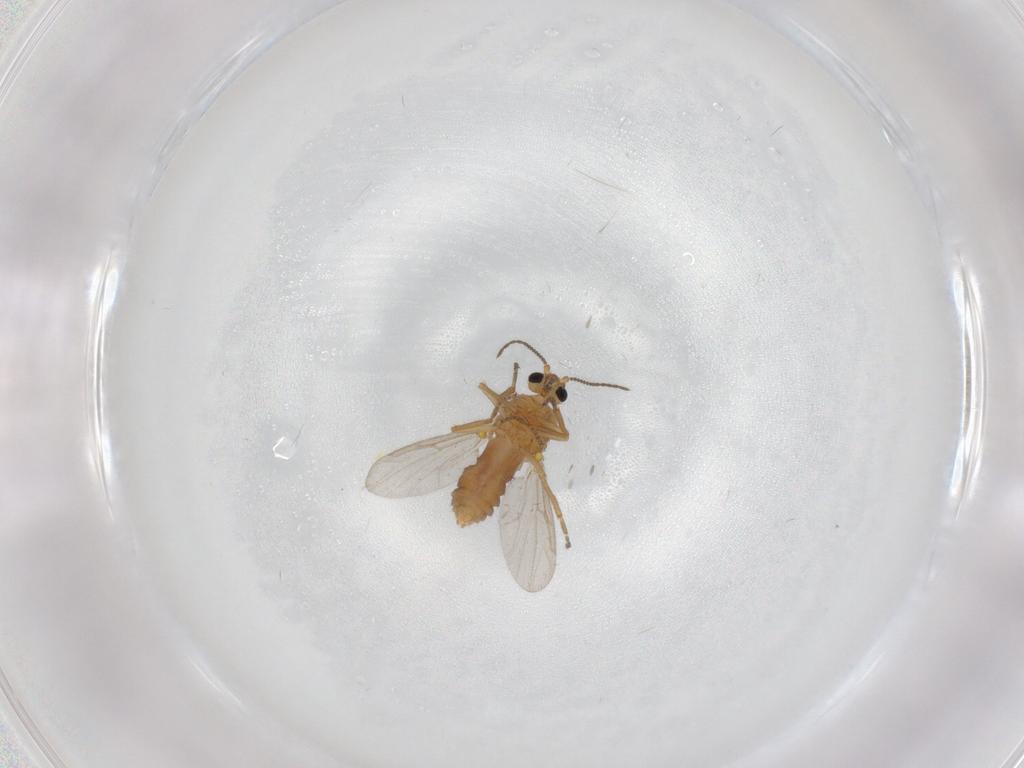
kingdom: Animalia
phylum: Arthropoda
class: Insecta
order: Diptera
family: Ceratopogonidae
